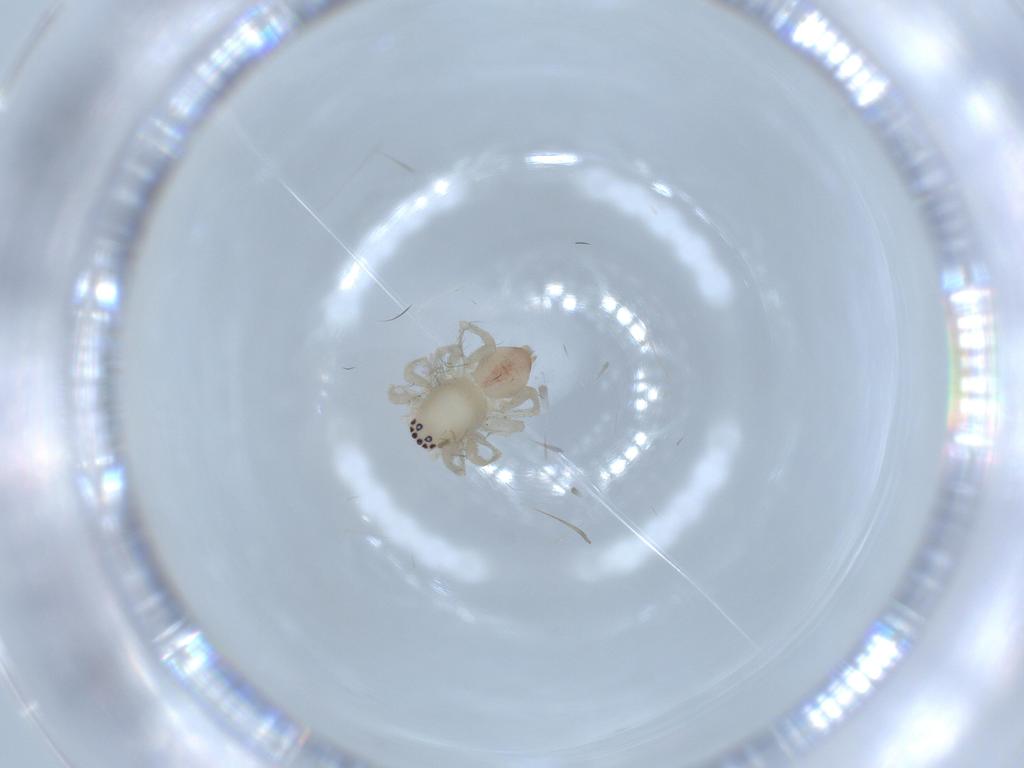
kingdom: Animalia
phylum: Arthropoda
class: Arachnida
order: Araneae
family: Clubionidae
